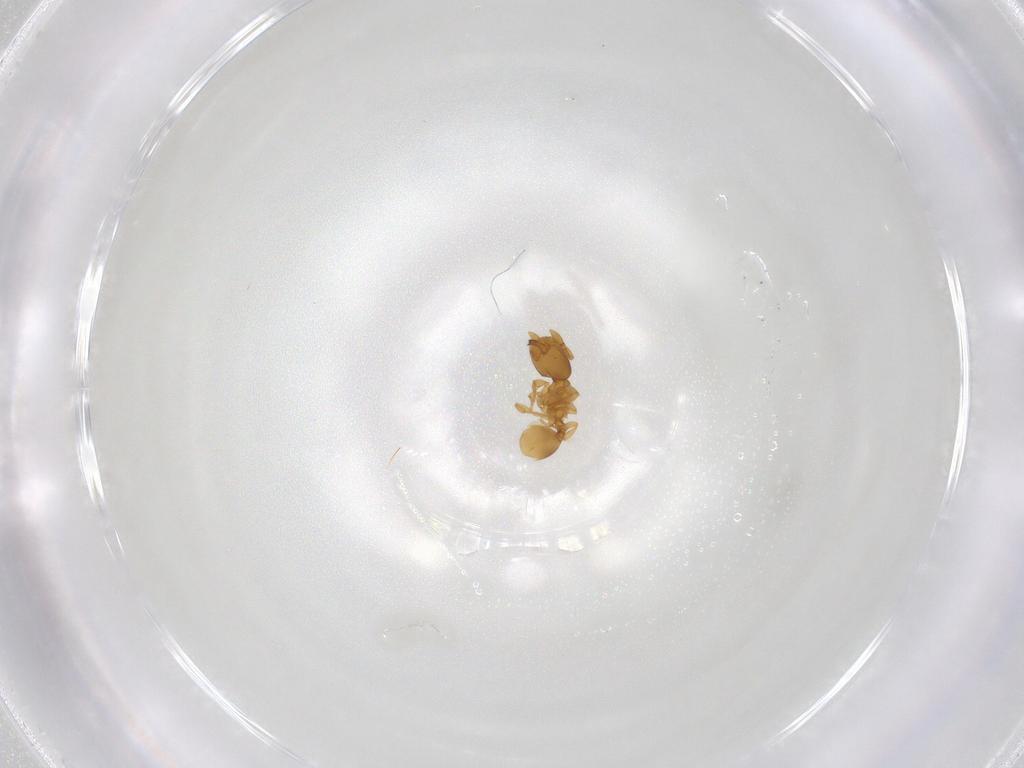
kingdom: Animalia
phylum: Arthropoda
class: Insecta
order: Hymenoptera
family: Formicidae
